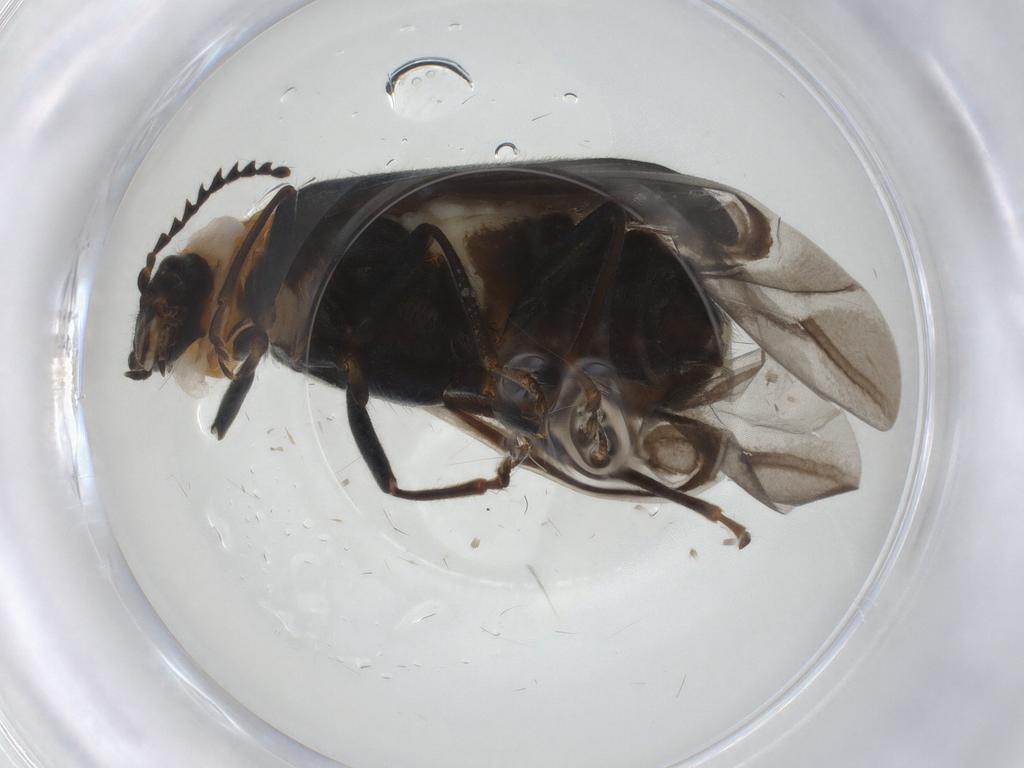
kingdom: Animalia
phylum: Arthropoda
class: Insecta
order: Coleoptera
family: Melyridae
